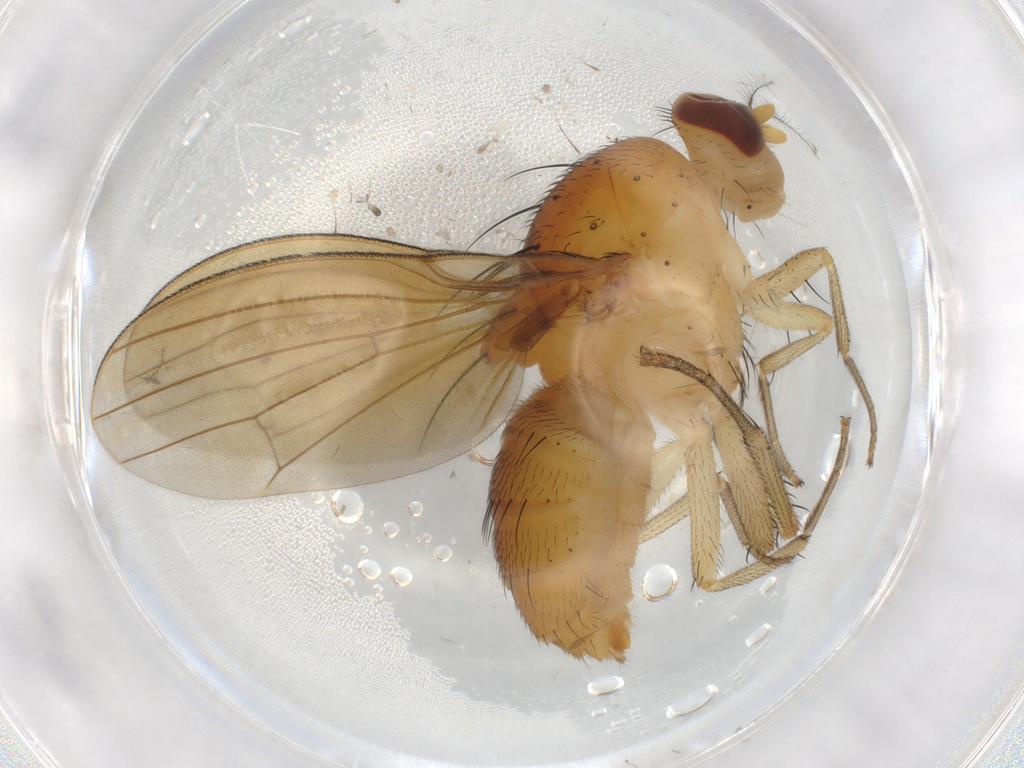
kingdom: Animalia
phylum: Arthropoda
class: Insecta
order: Diptera
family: Cecidomyiidae
